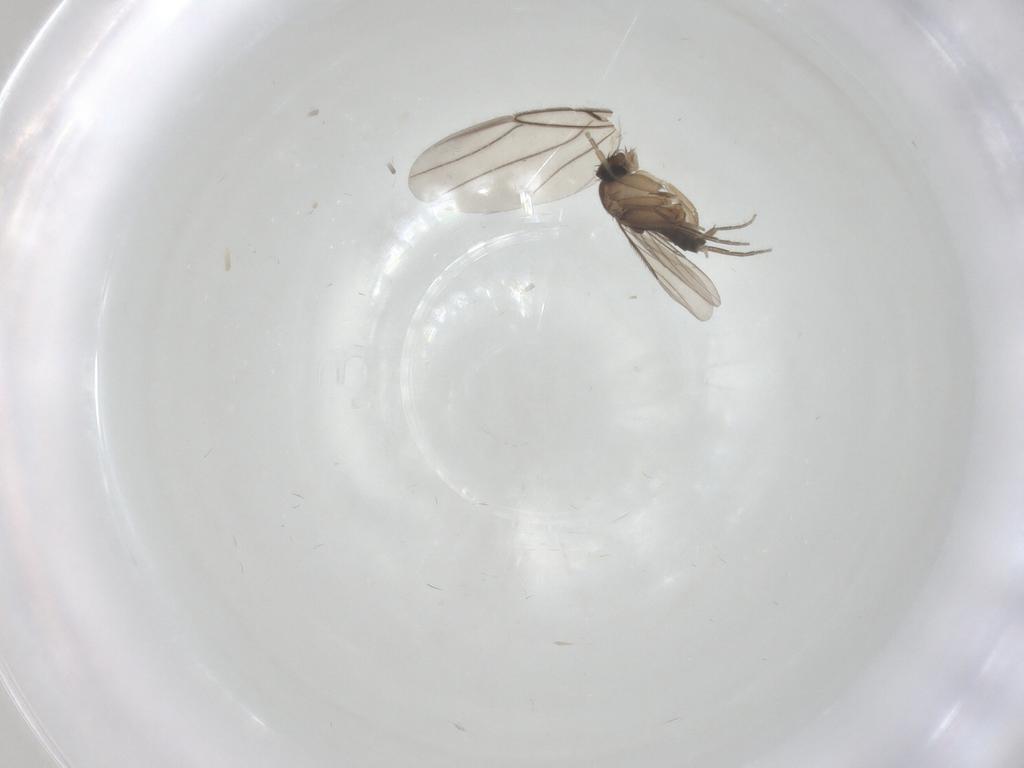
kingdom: Animalia
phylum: Arthropoda
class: Insecta
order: Diptera
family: Phoridae
